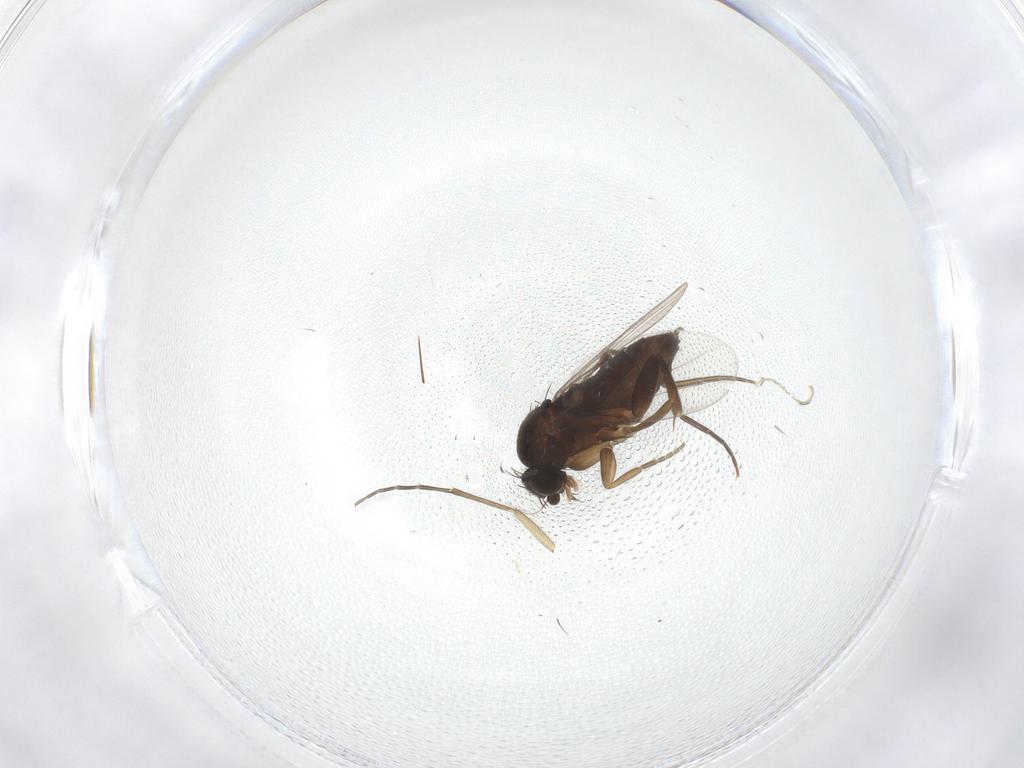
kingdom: Animalia
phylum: Arthropoda
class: Insecta
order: Diptera
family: Phoridae
